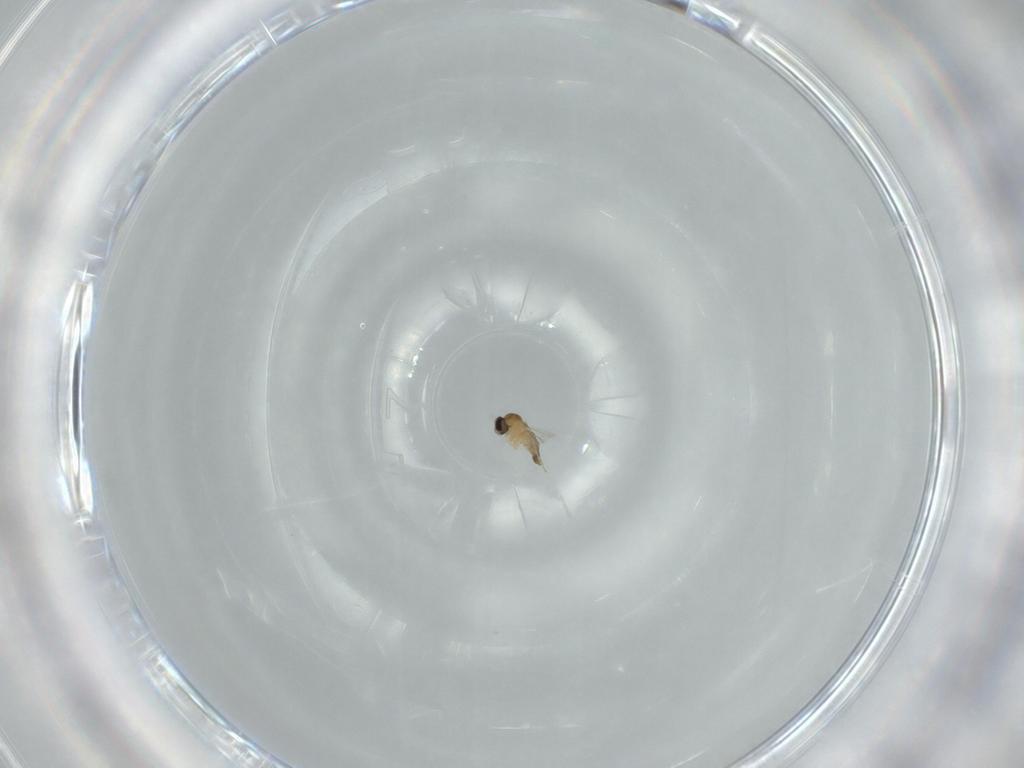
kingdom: Animalia
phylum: Arthropoda
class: Insecta
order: Diptera
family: Cecidomyiidae
